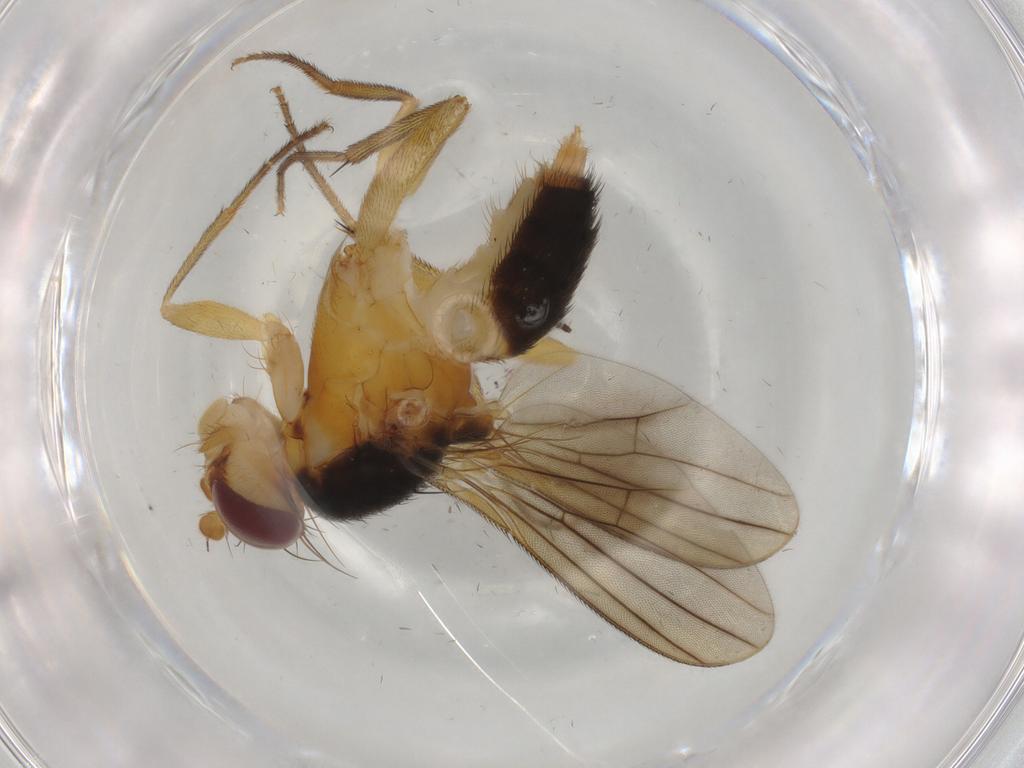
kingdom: Animalia
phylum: Arthropoda
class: Insecta
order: Diptera
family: Clusiidae
